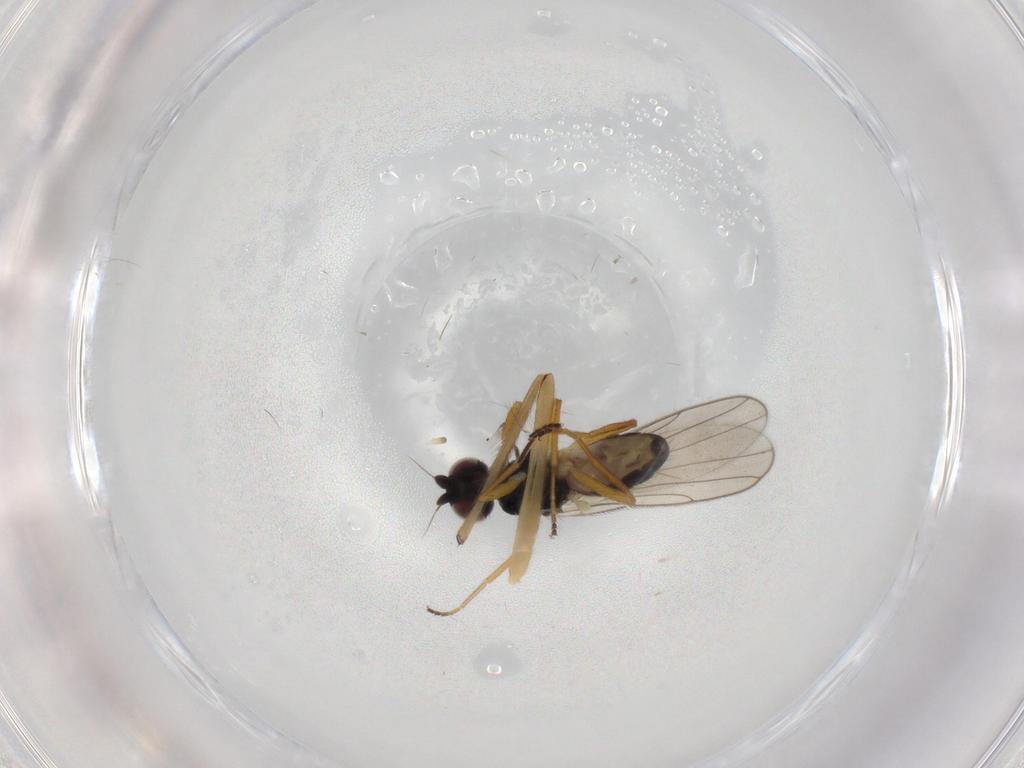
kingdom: Animalia
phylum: Arthropoda
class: Insecta
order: Diptera
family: Chloropidae
